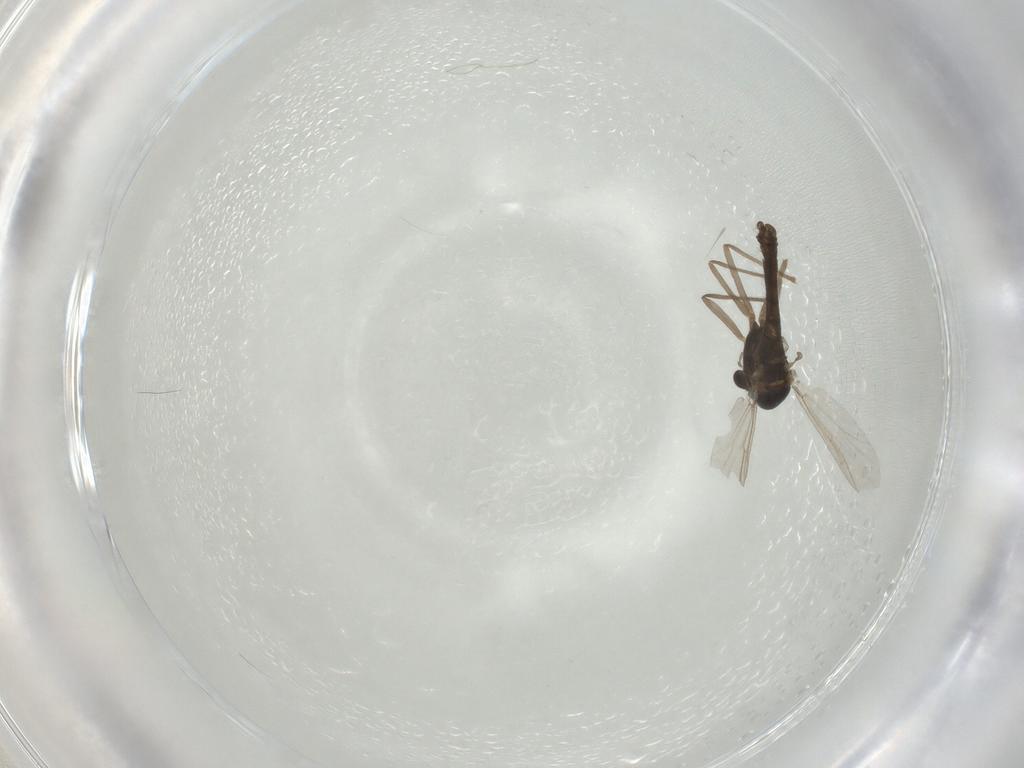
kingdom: Animalia
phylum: Arthropoda
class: Insecta
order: Diptera
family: Chironomidae
